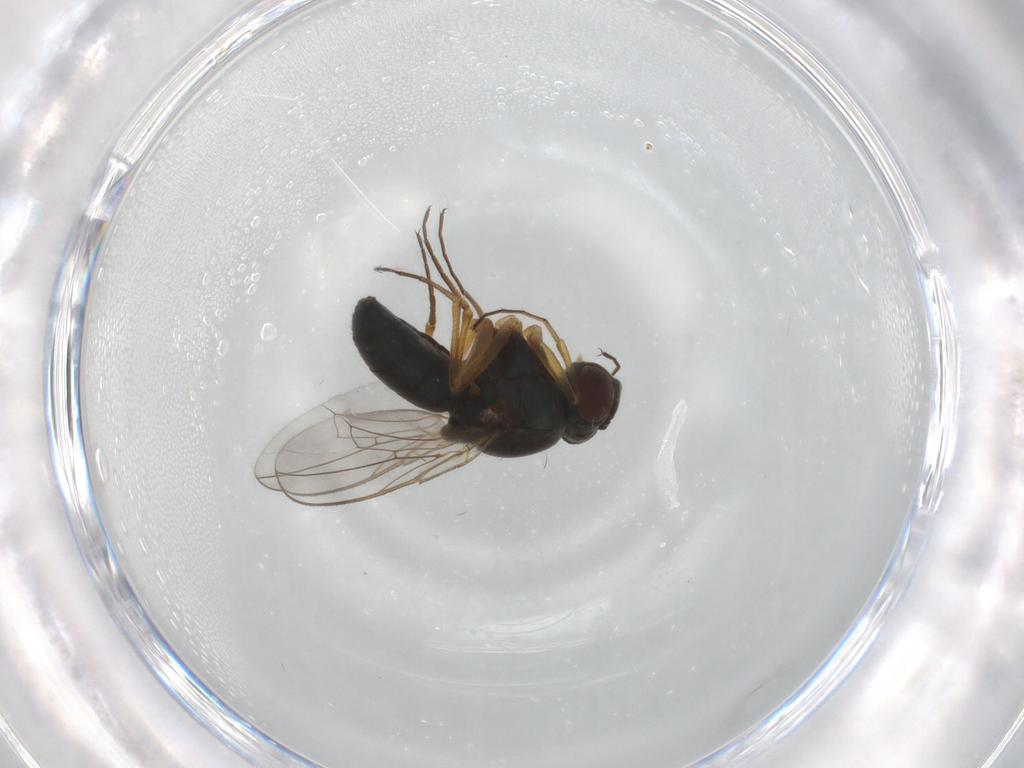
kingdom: Animalia
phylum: Arthropoda
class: Insecta
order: Diptera
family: Ephydridae
